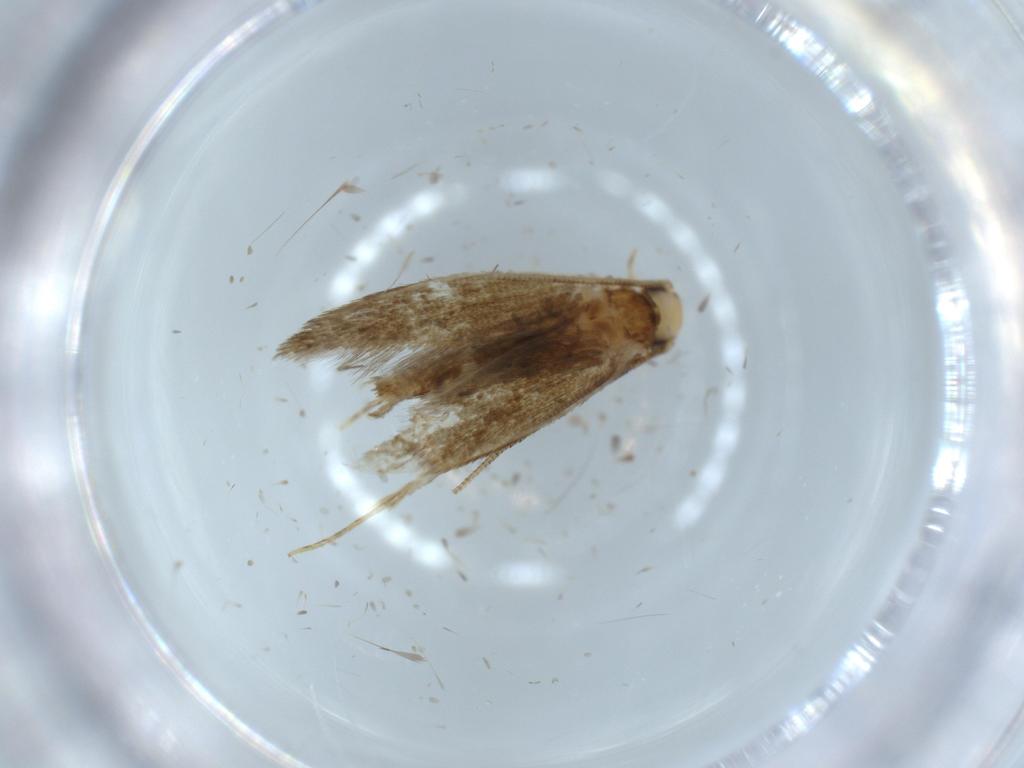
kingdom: Animalia
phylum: Arthropoda
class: Insecta
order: Lepidoptera
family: Tineidae
